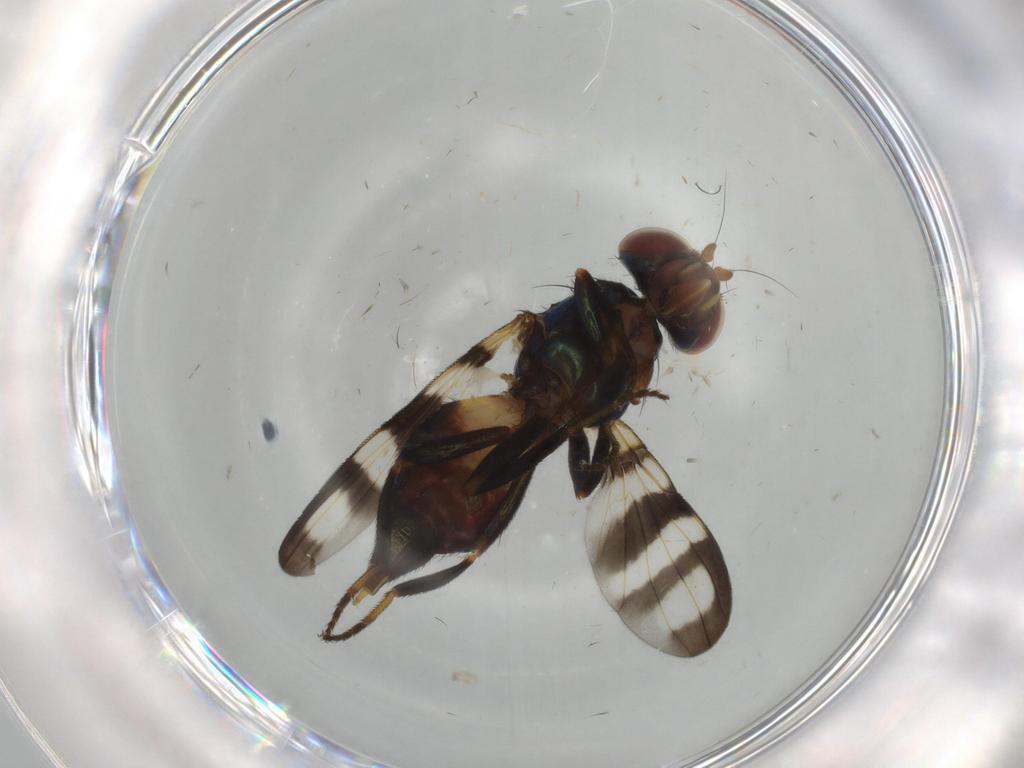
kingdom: Animalia
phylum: Arthropoda
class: Insecta
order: Diptera
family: Ulidiidae
